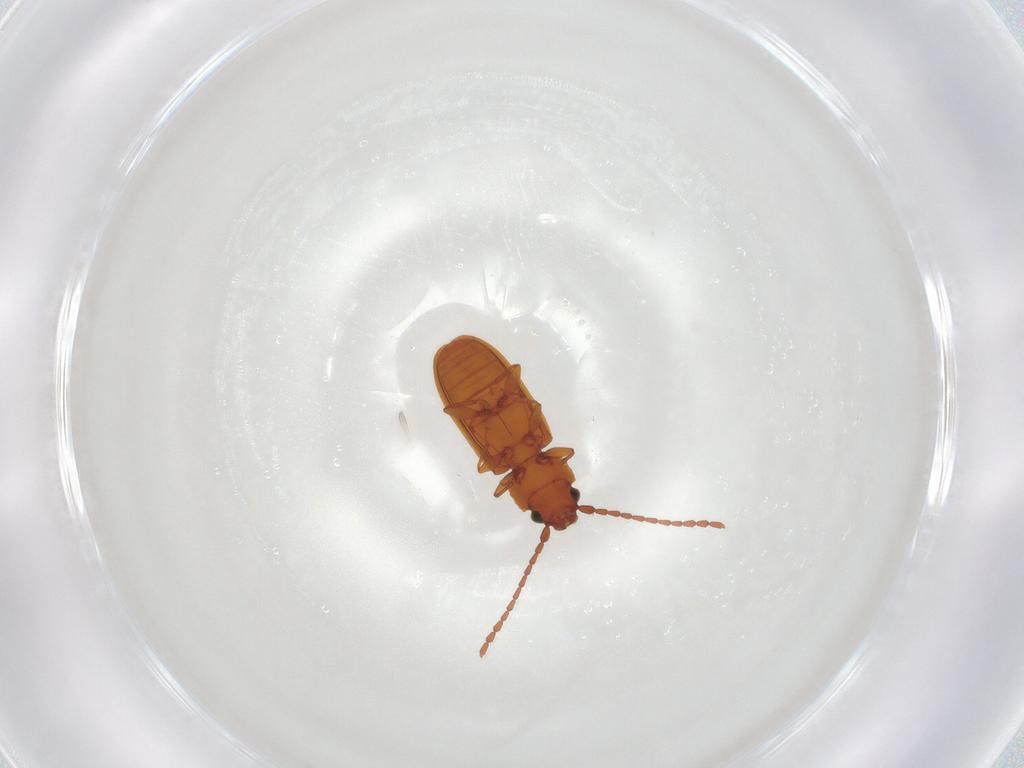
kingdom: Animalia
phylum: Arthropoda
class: Insecta
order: Coleoptera
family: Laemophloeidae
